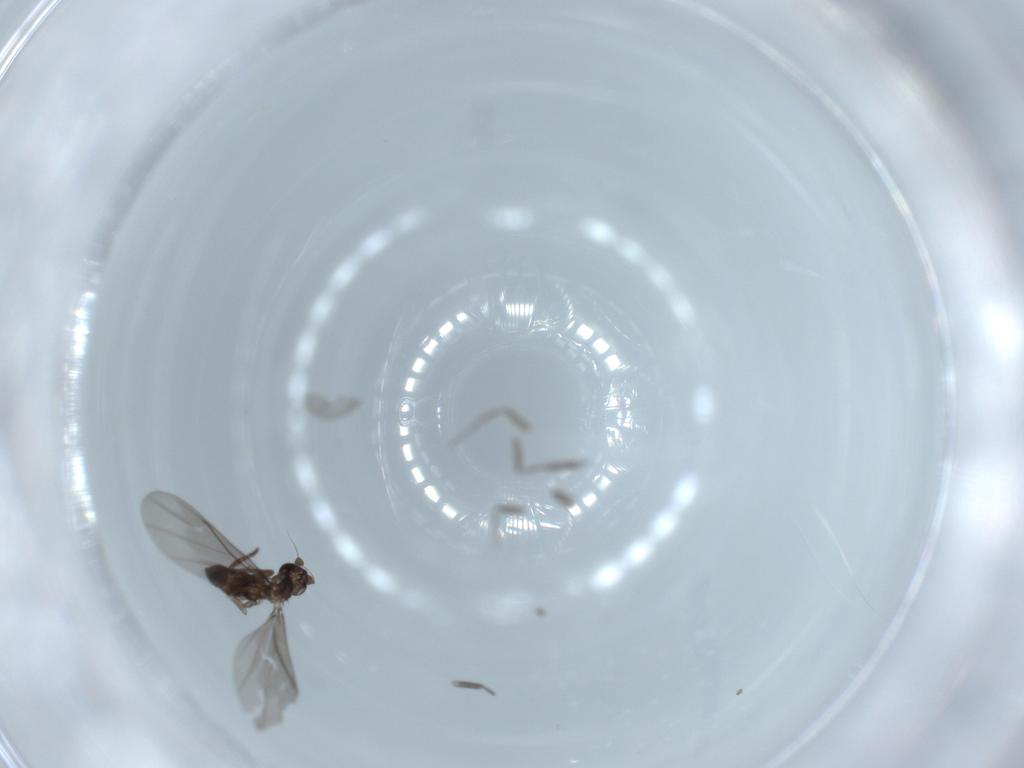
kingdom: Animalia
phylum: Arthropoda
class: Insecta
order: Diptera
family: Phoridae
